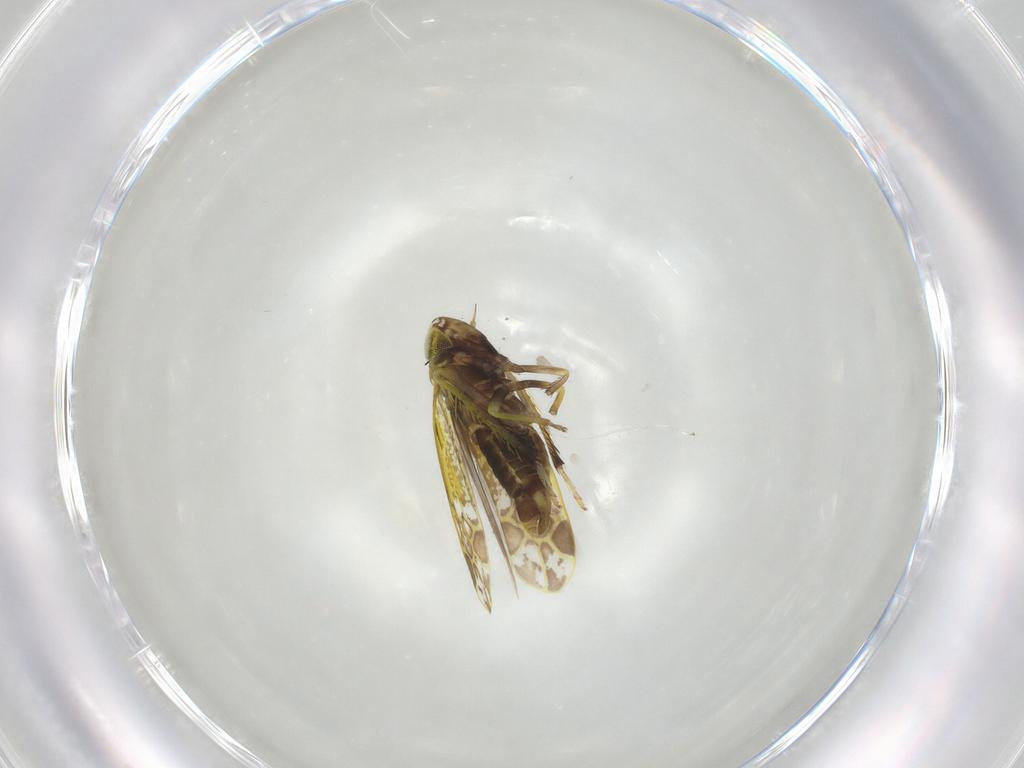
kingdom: Animalia
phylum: Arthropoda
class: Insecta
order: Hemiptera
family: Cicadellidae
